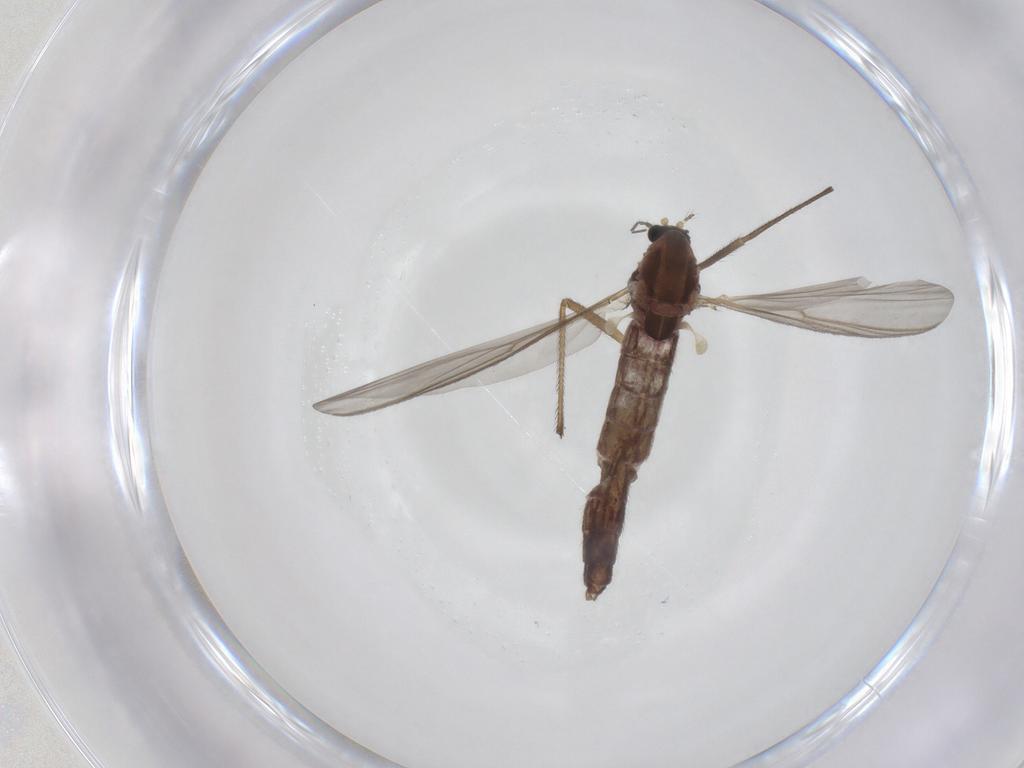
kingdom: Animalia
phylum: Arthropoda
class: Insecta
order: Diptera
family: Chironomidae
